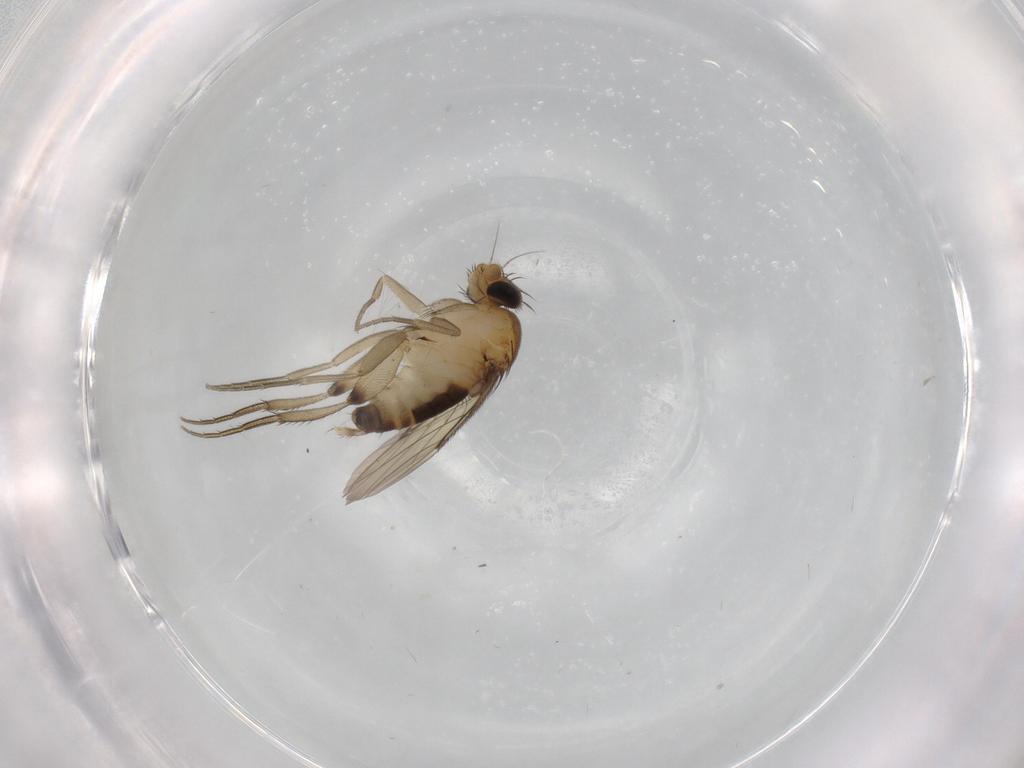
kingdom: Animalia
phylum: Arthropoda
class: Insecta
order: Diptera
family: Phoridae
